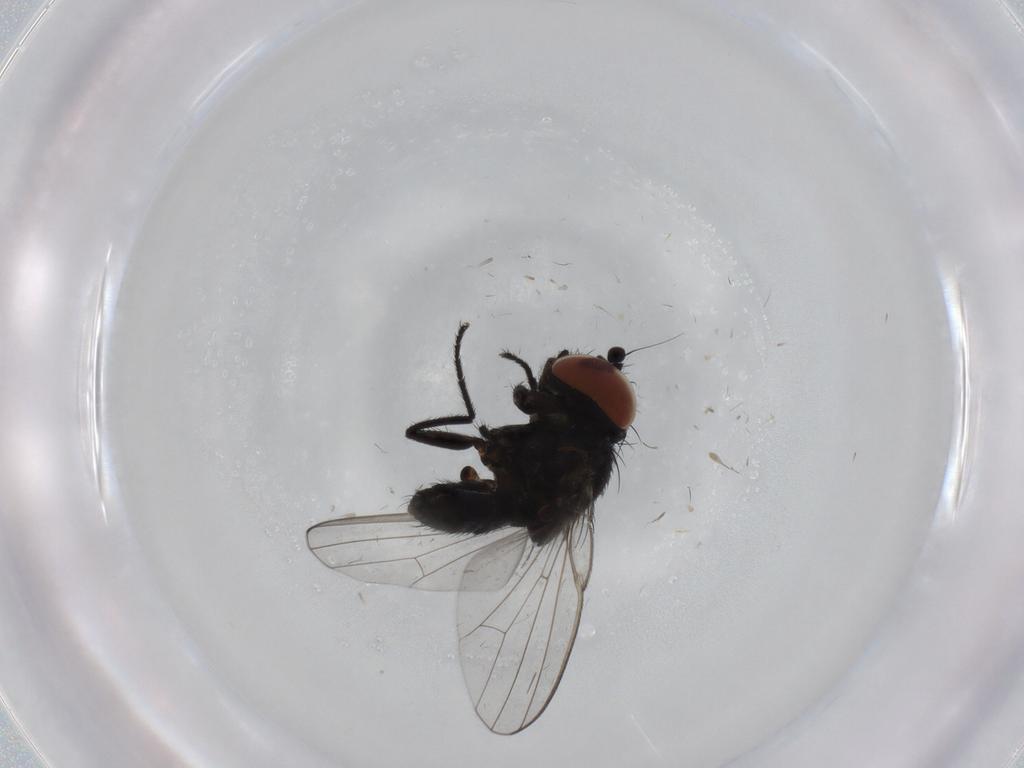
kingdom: Animalia
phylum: Arthropoda
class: Insecta
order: Diptera
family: Milichiidae
